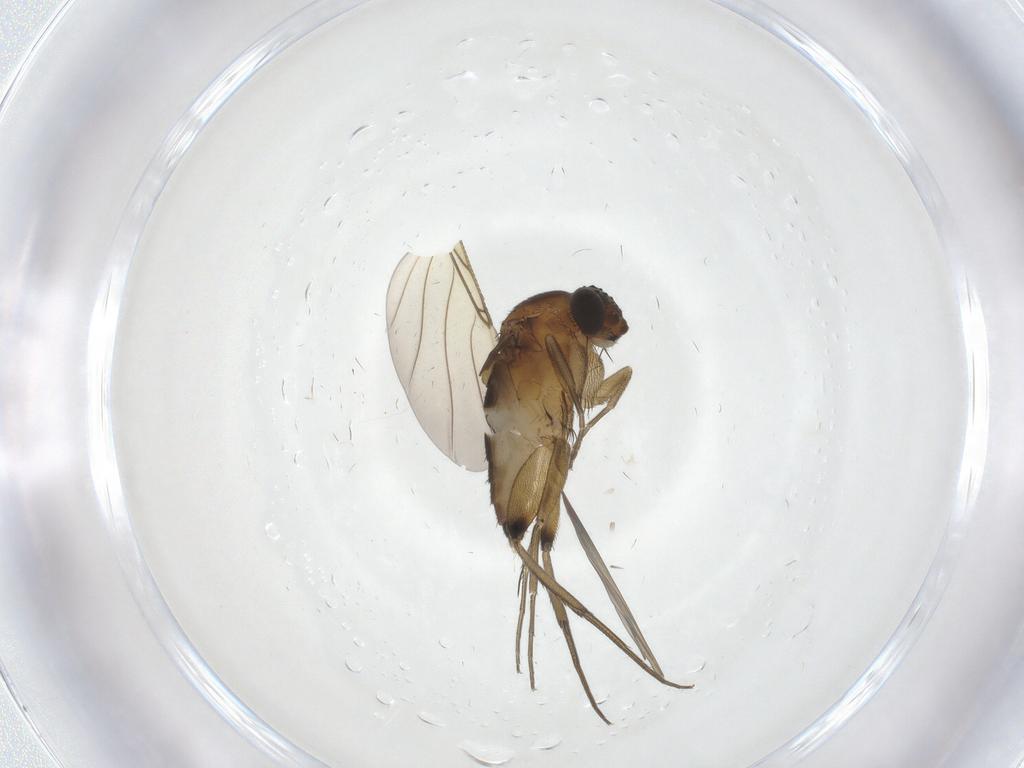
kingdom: Animalia
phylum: Arthropoda
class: Insecta
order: Diptera
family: Phoridae
